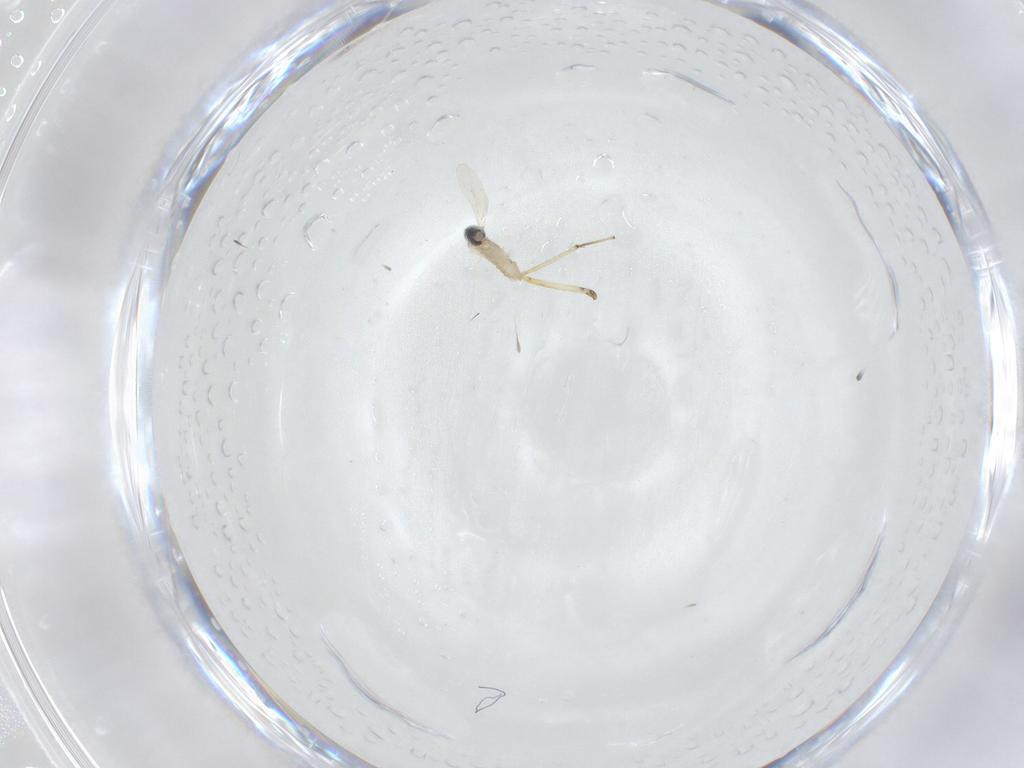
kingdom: Animalia
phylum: Arthropoda
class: Insecta
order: Diptera
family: Cecidomyiidae
